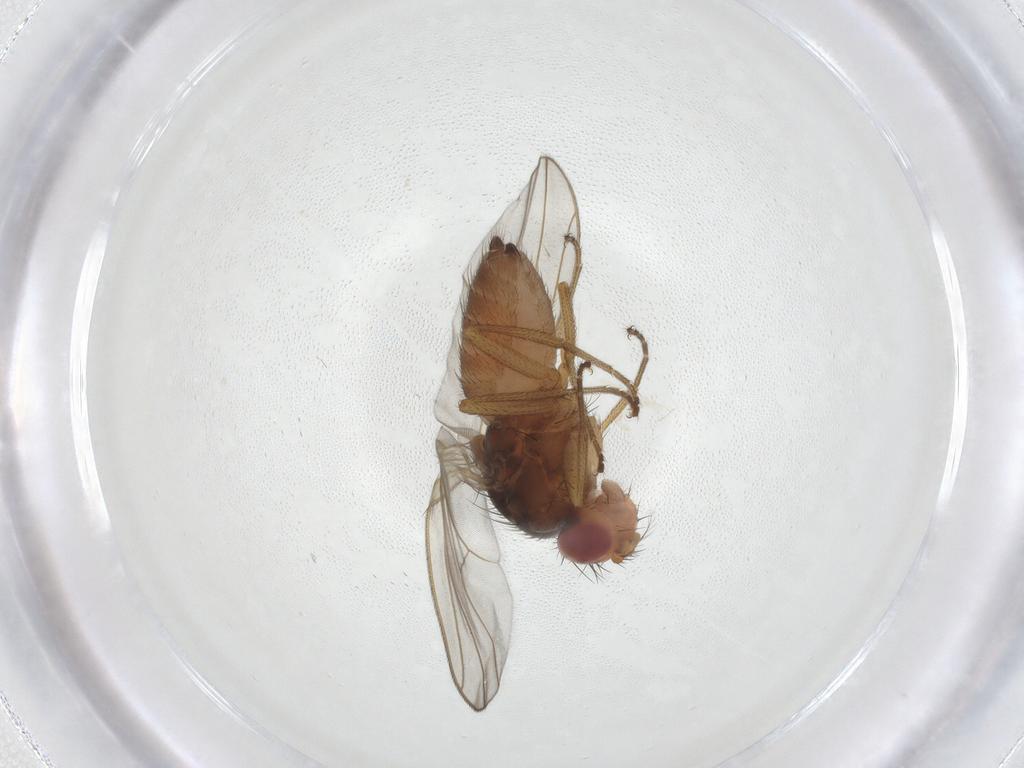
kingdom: Animalia
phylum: Arthropoda
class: Insecta
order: Diptera
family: Drosophilidae
